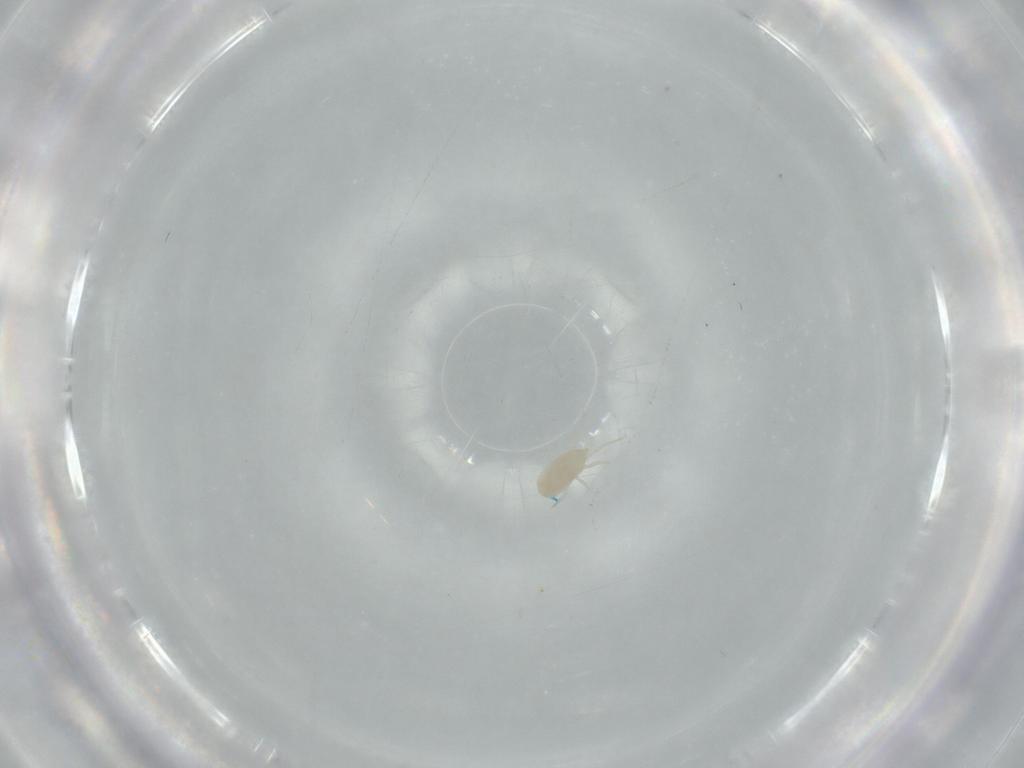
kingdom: Animalia
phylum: Arthropoda
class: Arachnida
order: Mesostigmata
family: Blattisociidae
